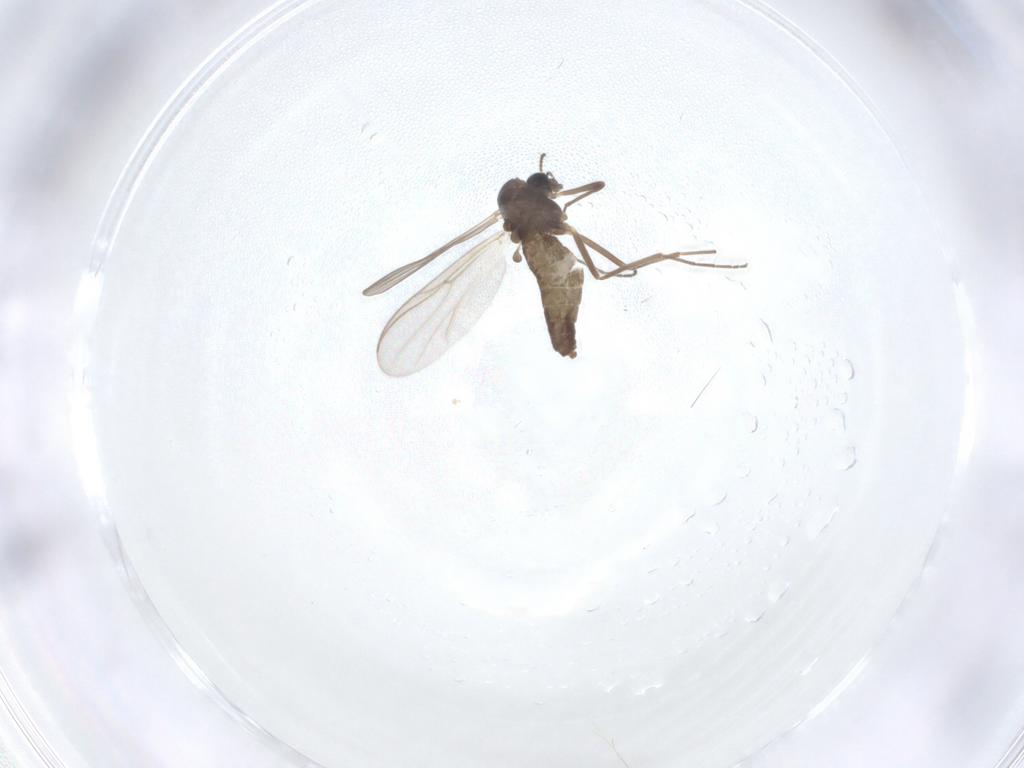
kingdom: Animalia
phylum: Arthropoda
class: Insecta
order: Diptera
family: Chironomidae
